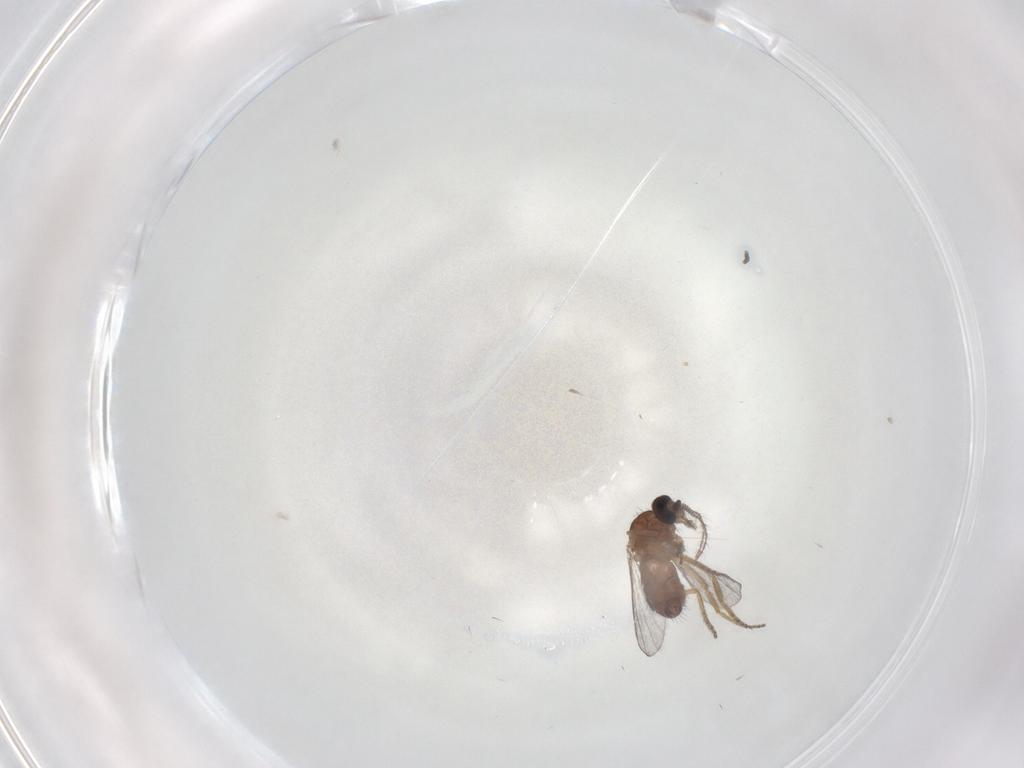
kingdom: Animalia
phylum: Arthropoda
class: Insecta
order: Diptera
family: Ceratopogonidae
